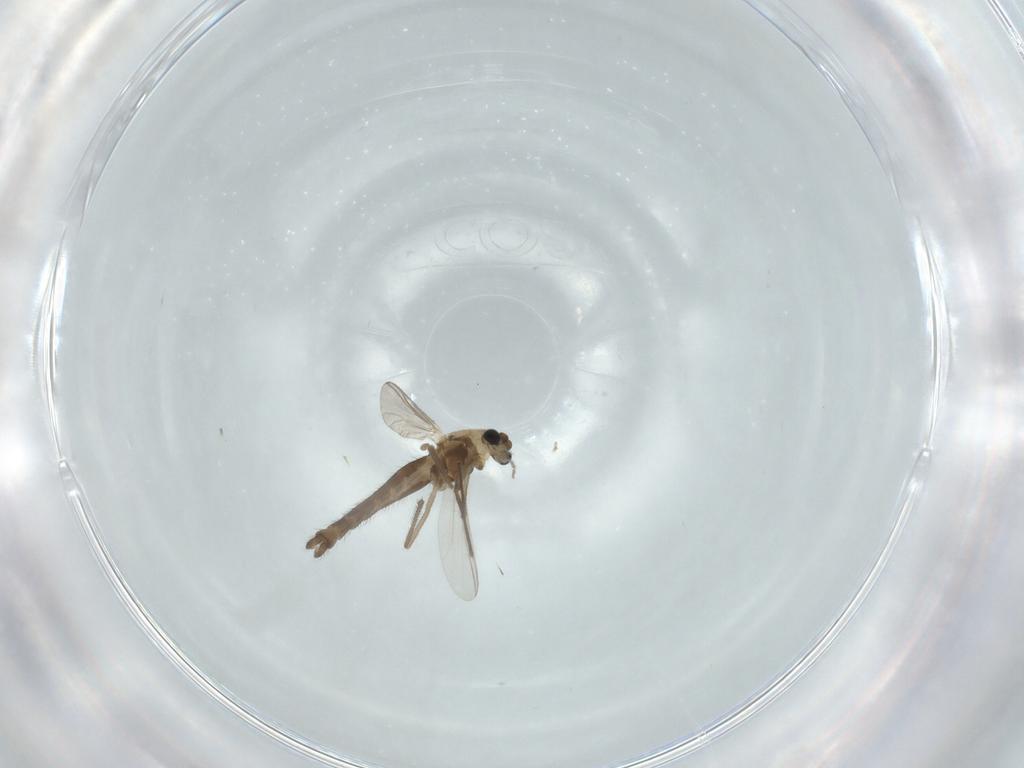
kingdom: Animalia
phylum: Arthropoda
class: Insecta
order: Diptera
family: Chironomidae
